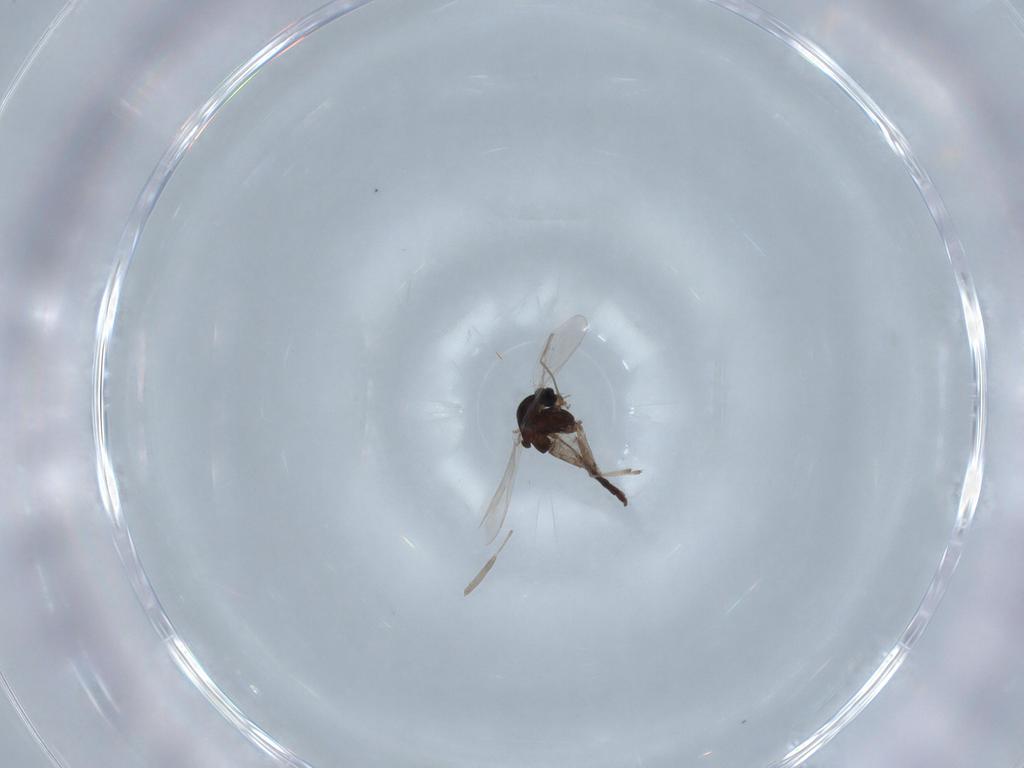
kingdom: Animalia
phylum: Arthropoda
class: Insecta
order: Diptera
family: Chironomidae
